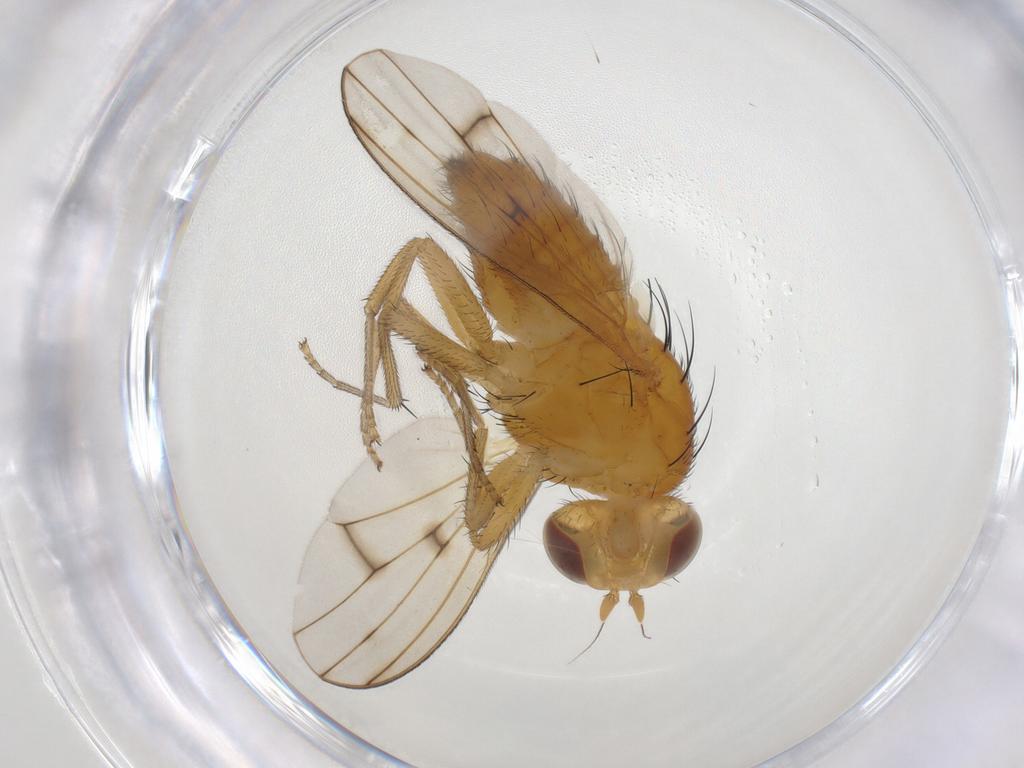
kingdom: Animalia
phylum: Arthropoda
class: Insecta
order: Diptera
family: Lauxaniidae
